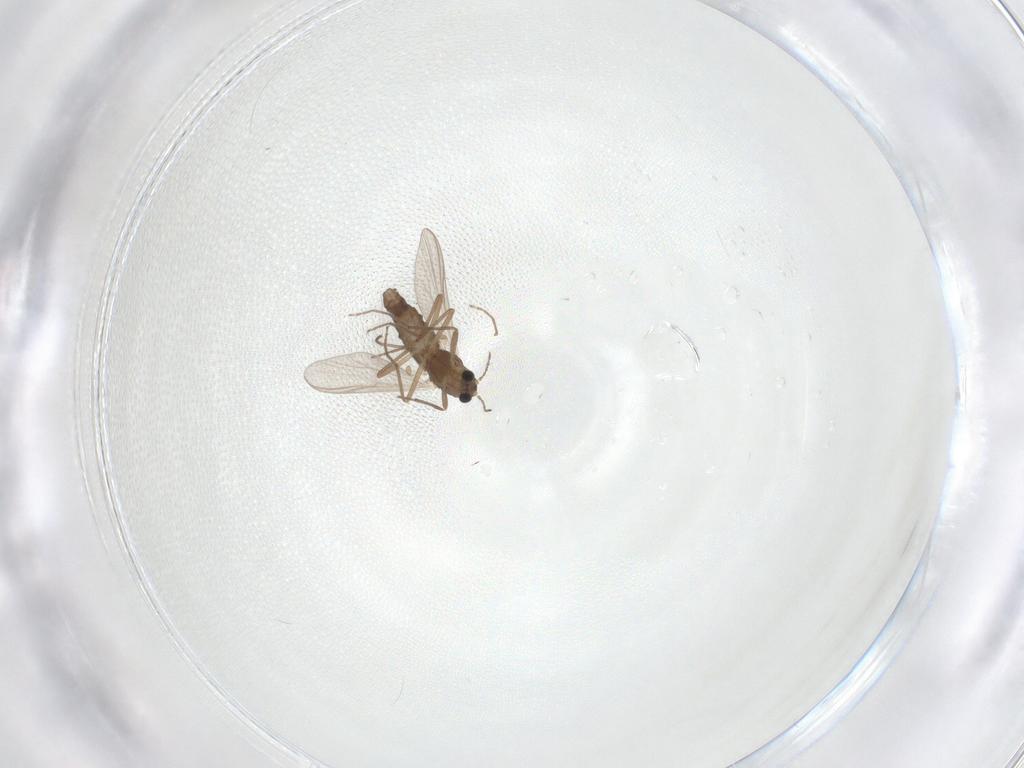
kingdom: Animalia
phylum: Arthropoda
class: Insecta
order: Diptera
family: Chironomidae
